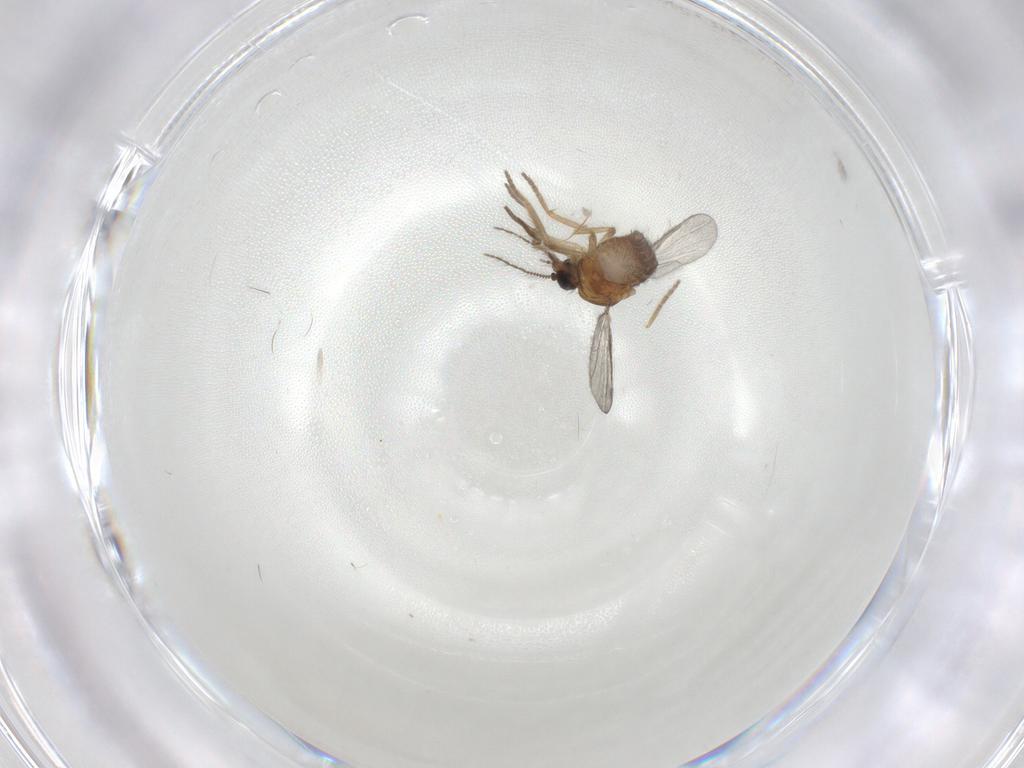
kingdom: Animalia
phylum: Arthropoda
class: Insecta
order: Diptera
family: Ceratopogonidae
